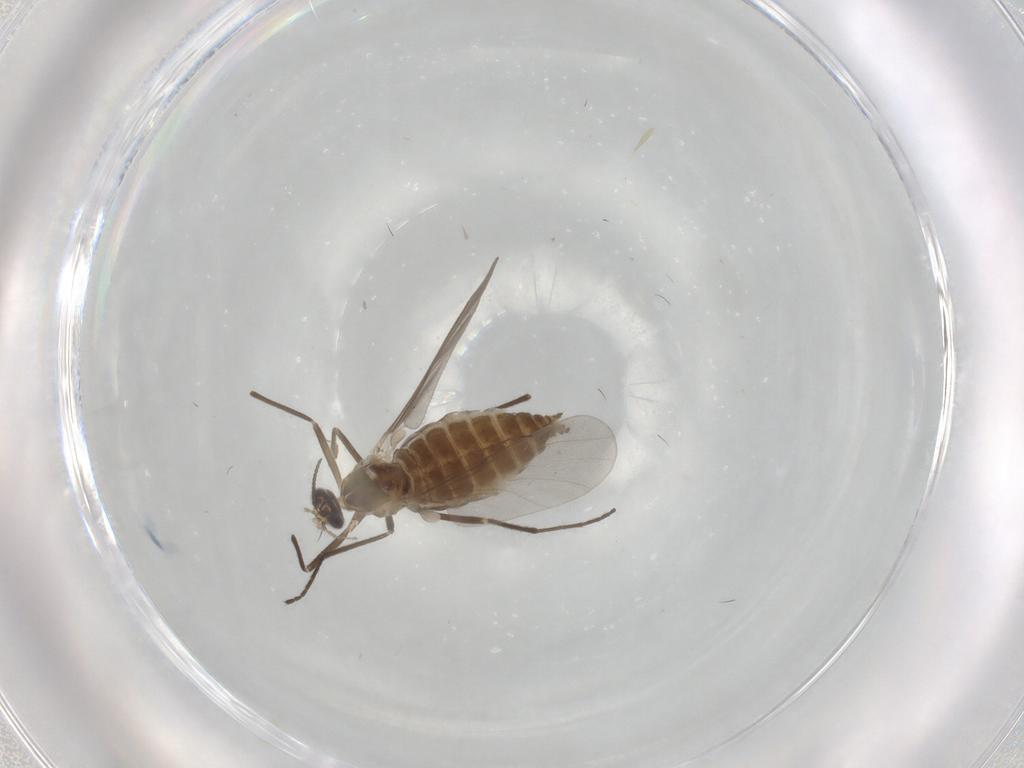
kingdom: Animalia
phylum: Arthropoda
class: Insecta
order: Diptera
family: Cecidomyiidae
